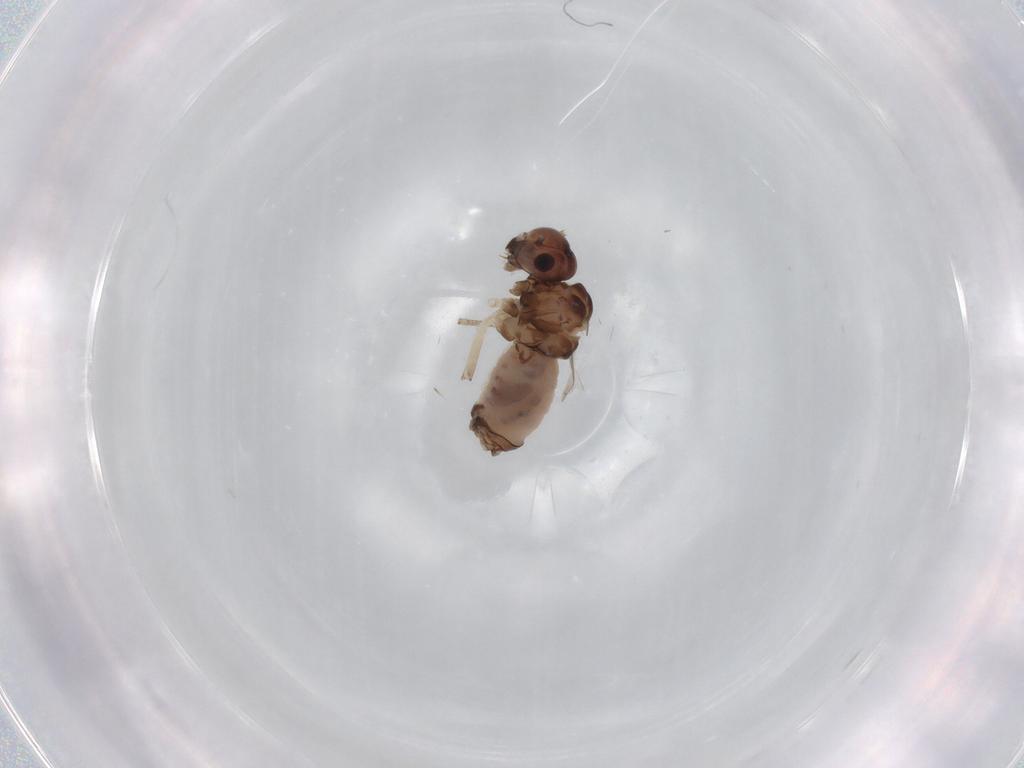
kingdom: Animalia
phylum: Arthropoda
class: Insecta
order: Psocodea
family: Peripsocidae
